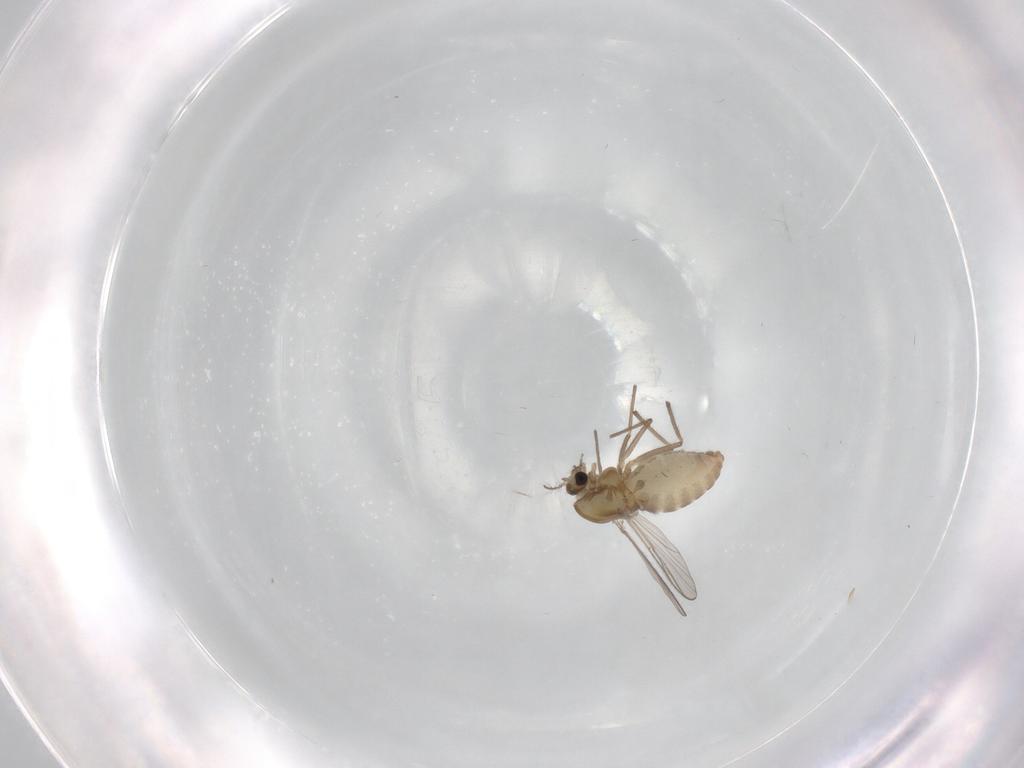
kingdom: Animalia
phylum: Arthropoda
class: Insecta
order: Diptera
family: Chironomidae
